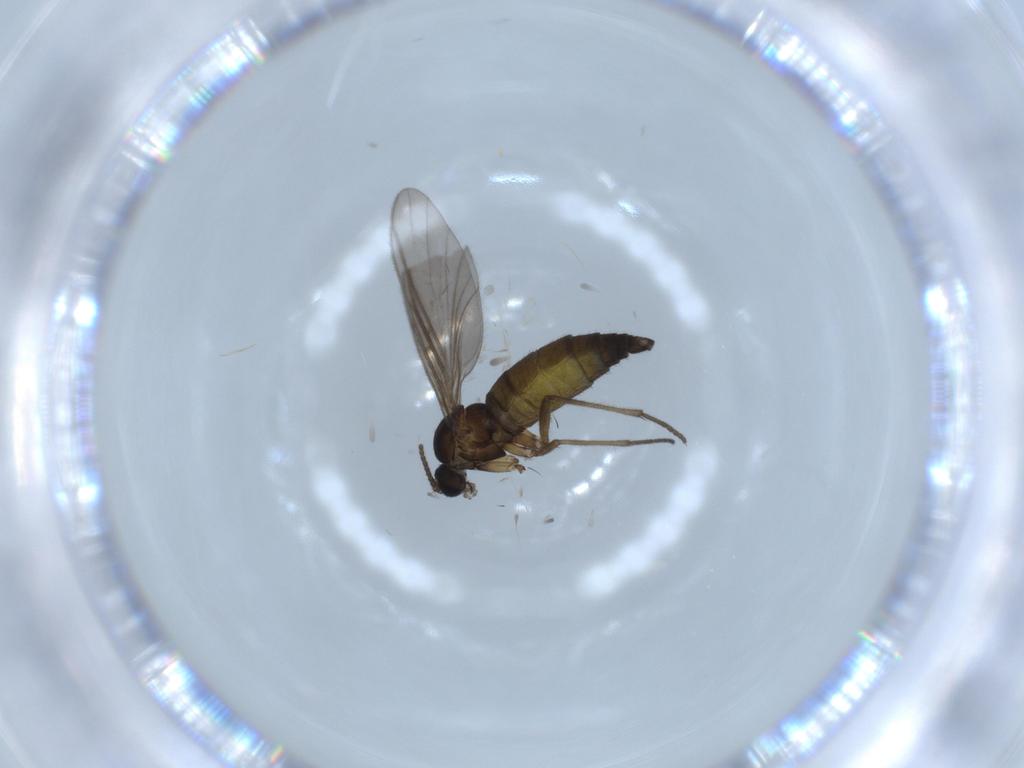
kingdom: Animalia
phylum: Arthropoda
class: Insecta
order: Diptera
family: Sciaridae
